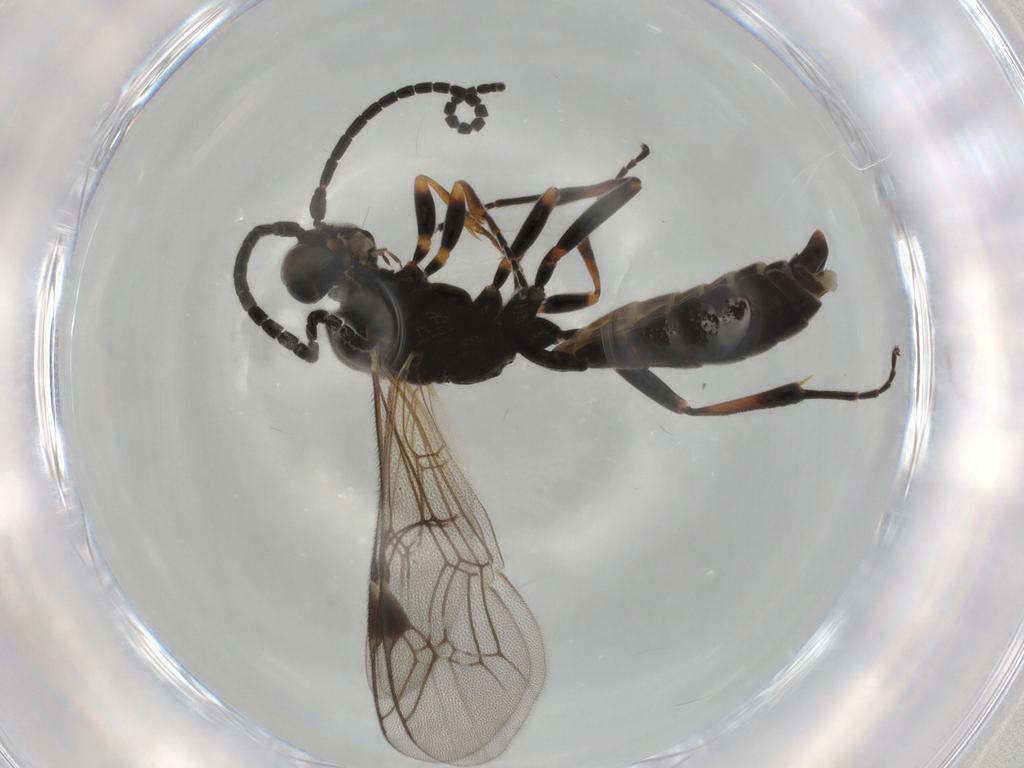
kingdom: Animalia
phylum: Arthropoda
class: Insecta
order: Hymenoptera
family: Ichneumonidae
